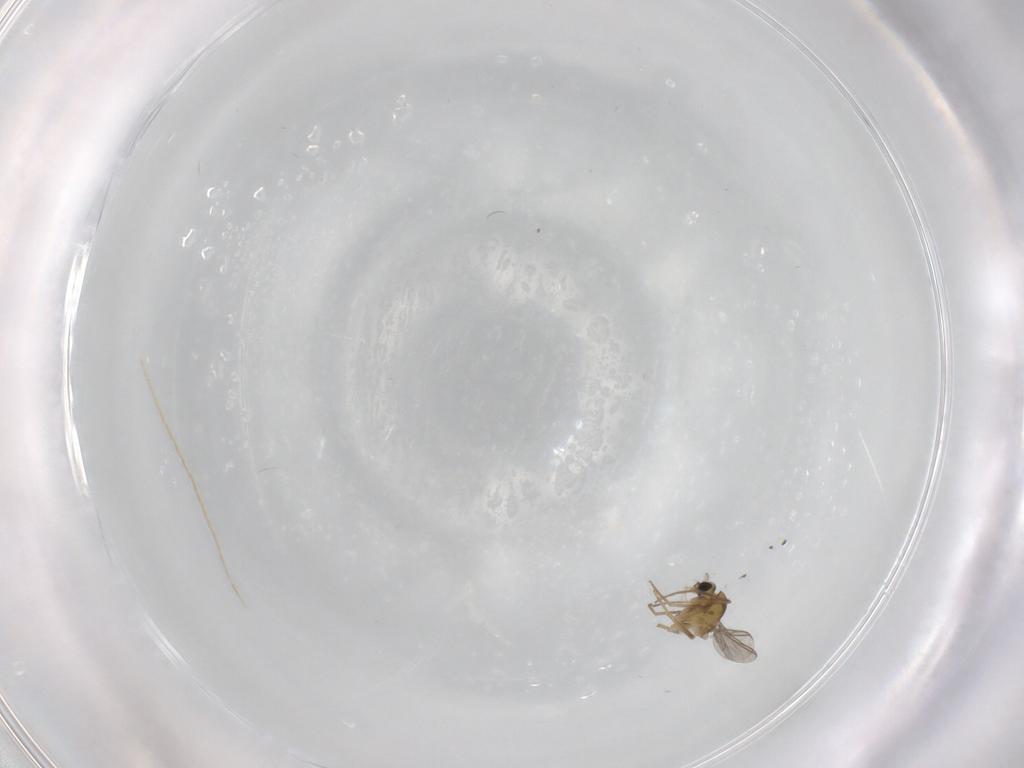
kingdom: Animalia
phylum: Arthropoda
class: Insecta
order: Diptera
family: Chironomidae
